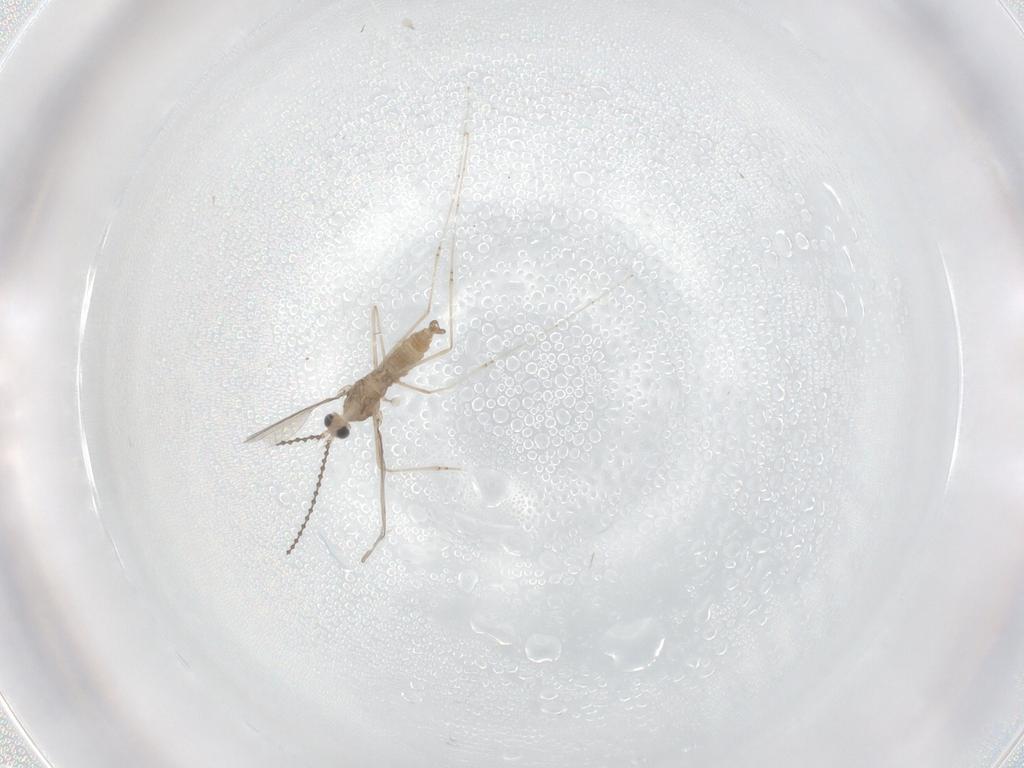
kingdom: Animalia
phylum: Arthropoda
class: Insecta
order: Diptera
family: Cecidomyiidae
